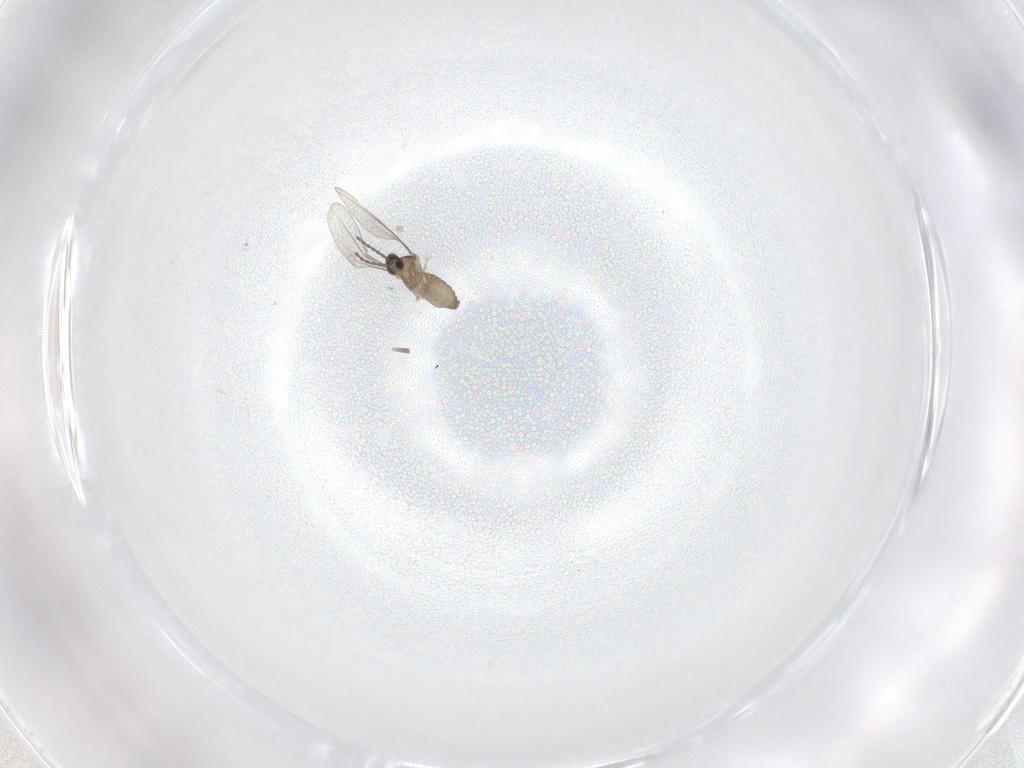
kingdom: Animalia
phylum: Arthropoda
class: Insecta
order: Diptera
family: Cecidomyiidae
